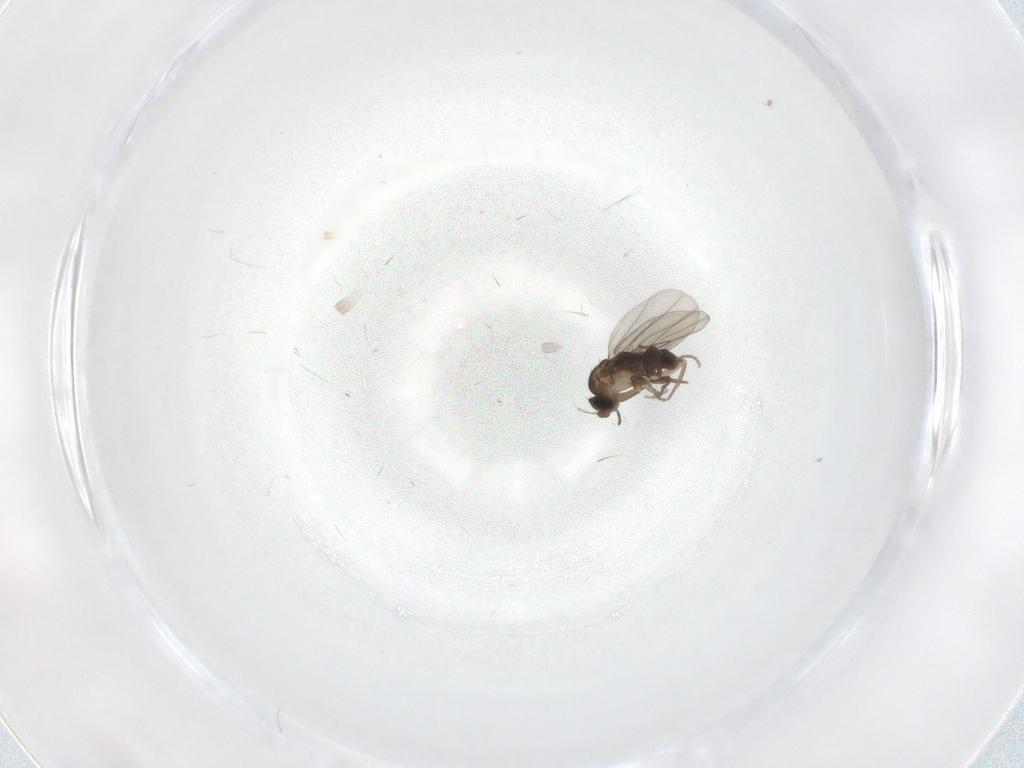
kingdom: Animalia
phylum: Arthropoda
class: Insecta
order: Diptera
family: Chironomidae
